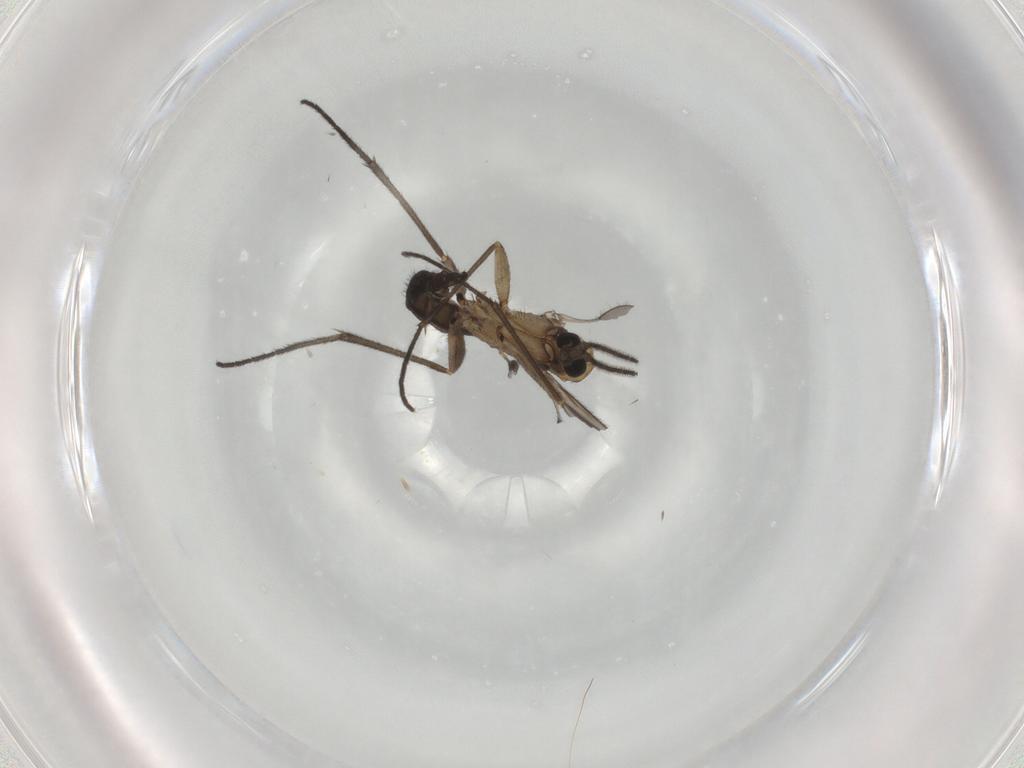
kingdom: Animalia
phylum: Arthropoda
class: Insecta
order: Diptera
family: Sciaridae
